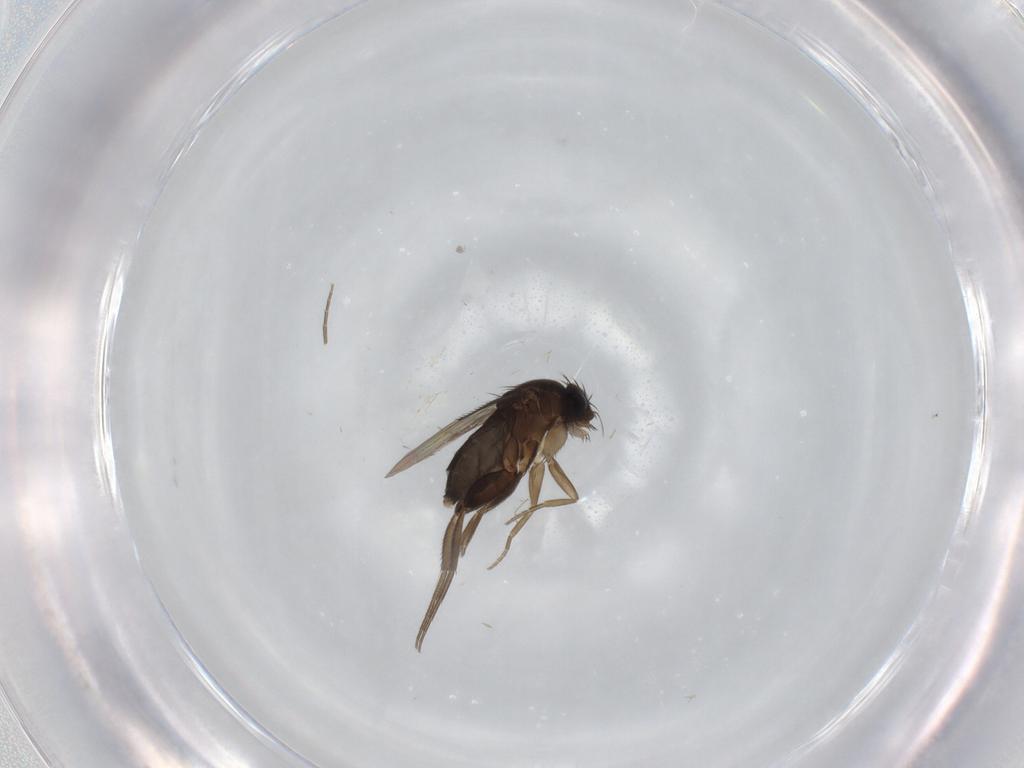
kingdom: Animalia
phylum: Arthropoda
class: Insecta
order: Diptera
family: Phoridae
